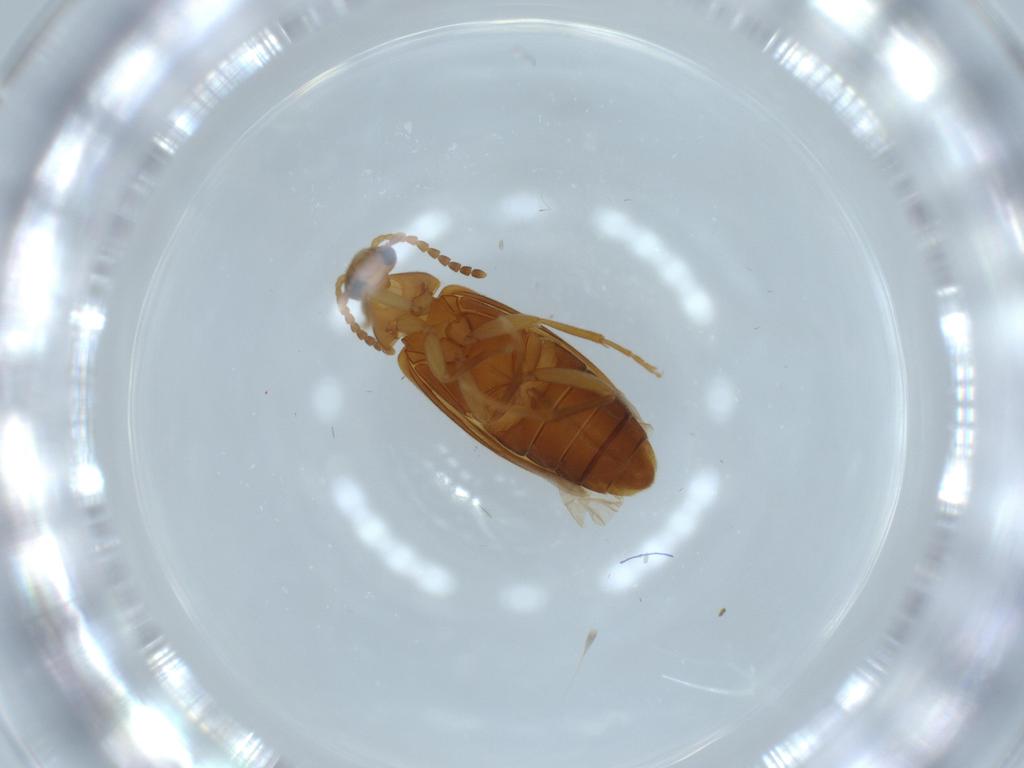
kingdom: Animalia
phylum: Arthropoda
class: Insecta
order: Coleoptera
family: Scraptiidae
